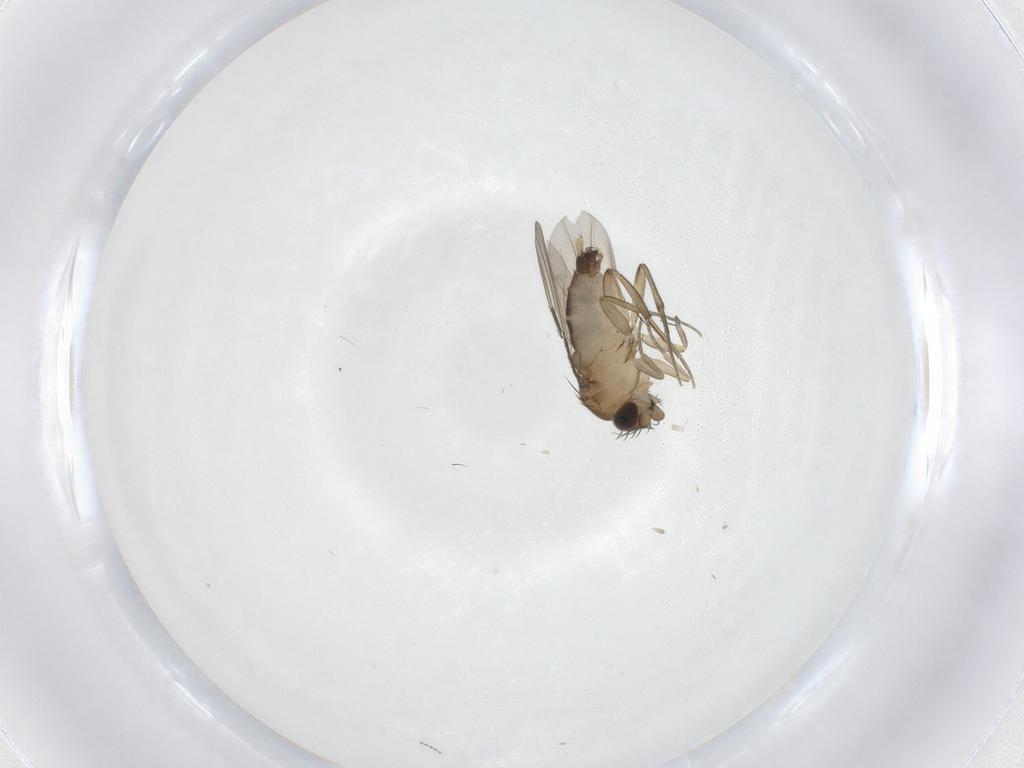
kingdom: Animalia
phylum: Arthropoda
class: Insecta
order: Diptera
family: Phoridae
